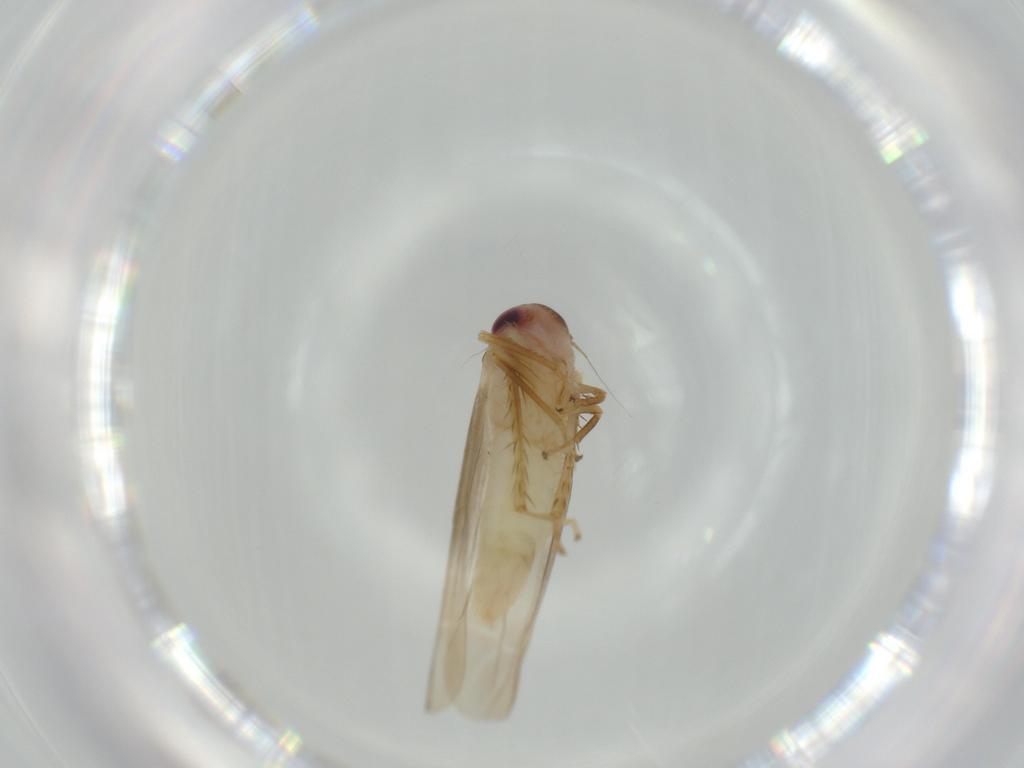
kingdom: Animalia
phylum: Arthropoda
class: Insecta
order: Hemiptera
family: Cicadellidae
